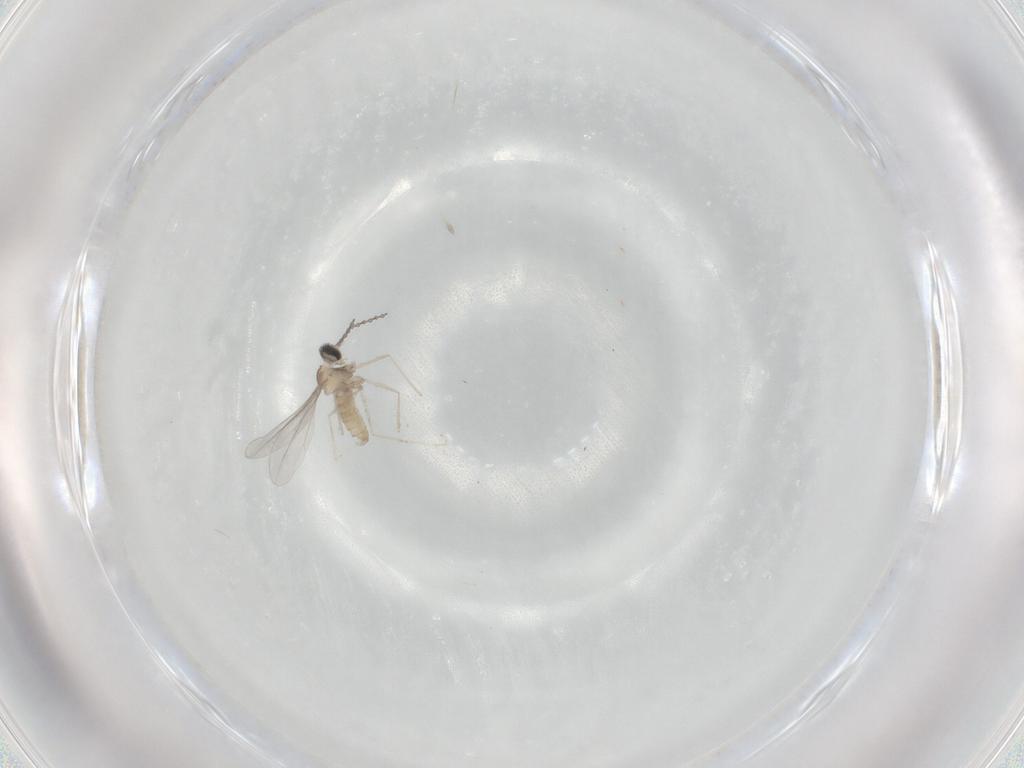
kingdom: Animalia
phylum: Arthropoda
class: Insecta
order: Diptera
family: Cecidomyiidae
